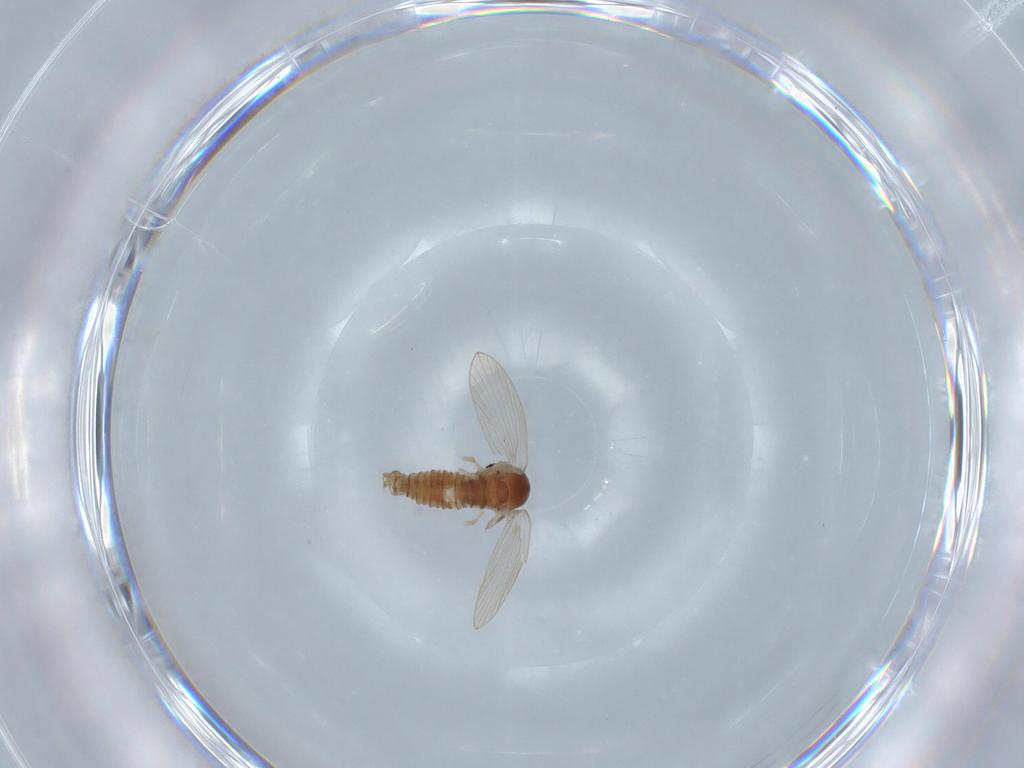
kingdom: Animalia
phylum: Arthropoda
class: Insecta
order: Diptera
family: Psychodidae
